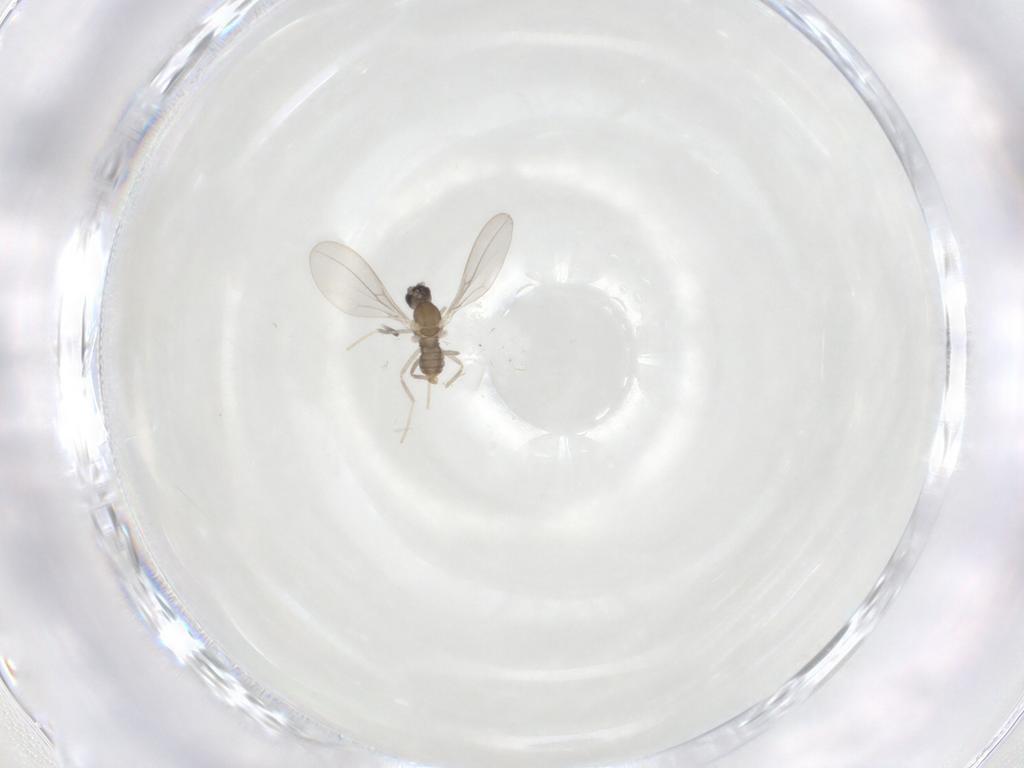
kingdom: Animalia
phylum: Arthropoda
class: Insecta
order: Diptera
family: Cecidomyiidae
